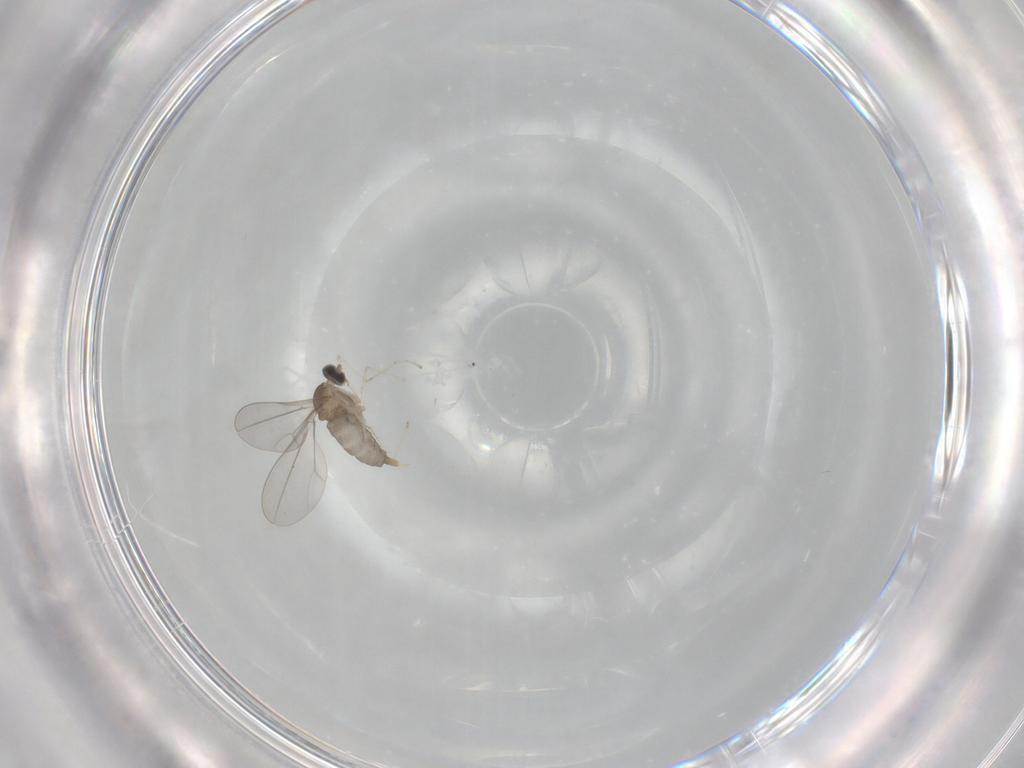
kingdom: Animalia
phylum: Arthropoda
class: Insecta
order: Diptera
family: Cecidomyiidae
